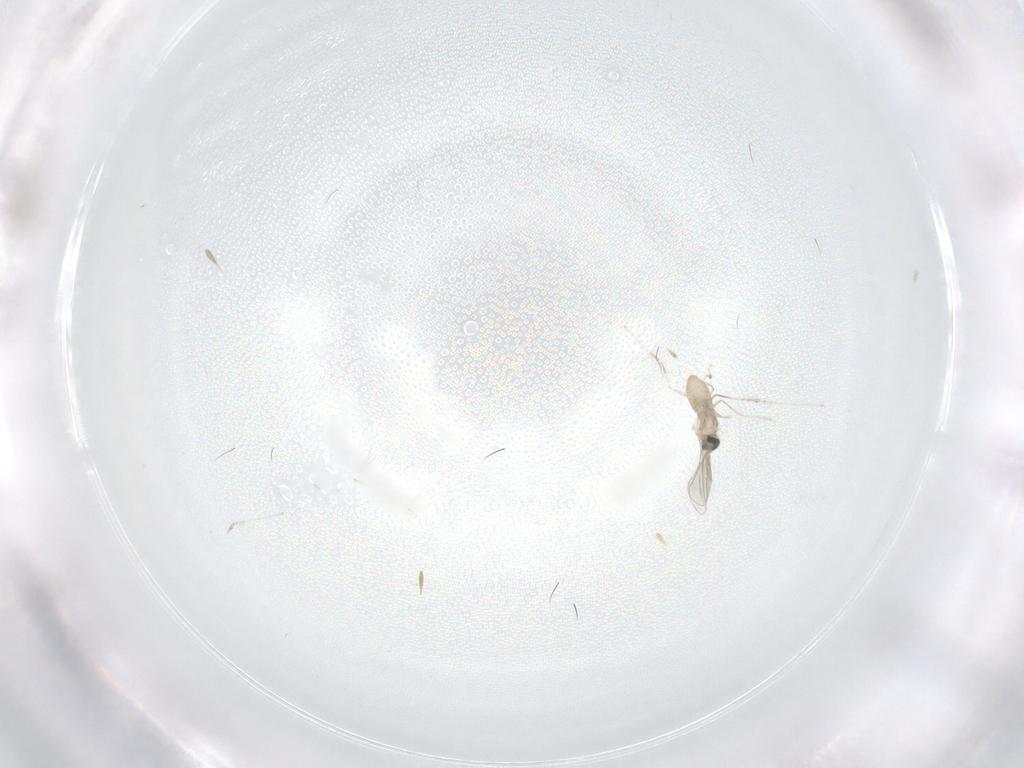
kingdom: Animalia
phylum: Arthropoda
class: Insecta
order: Diptera
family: Cecidomyiidae
